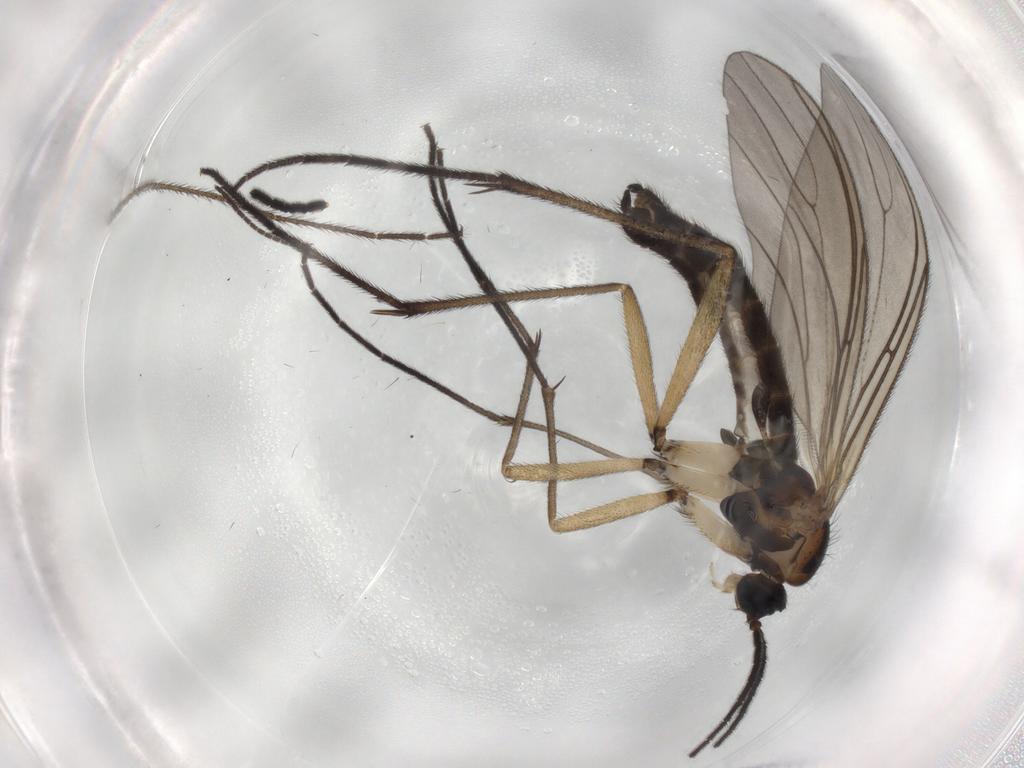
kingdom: Animalia
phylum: Arthropoda
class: Insecta
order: Diptera
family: Sciaridae
